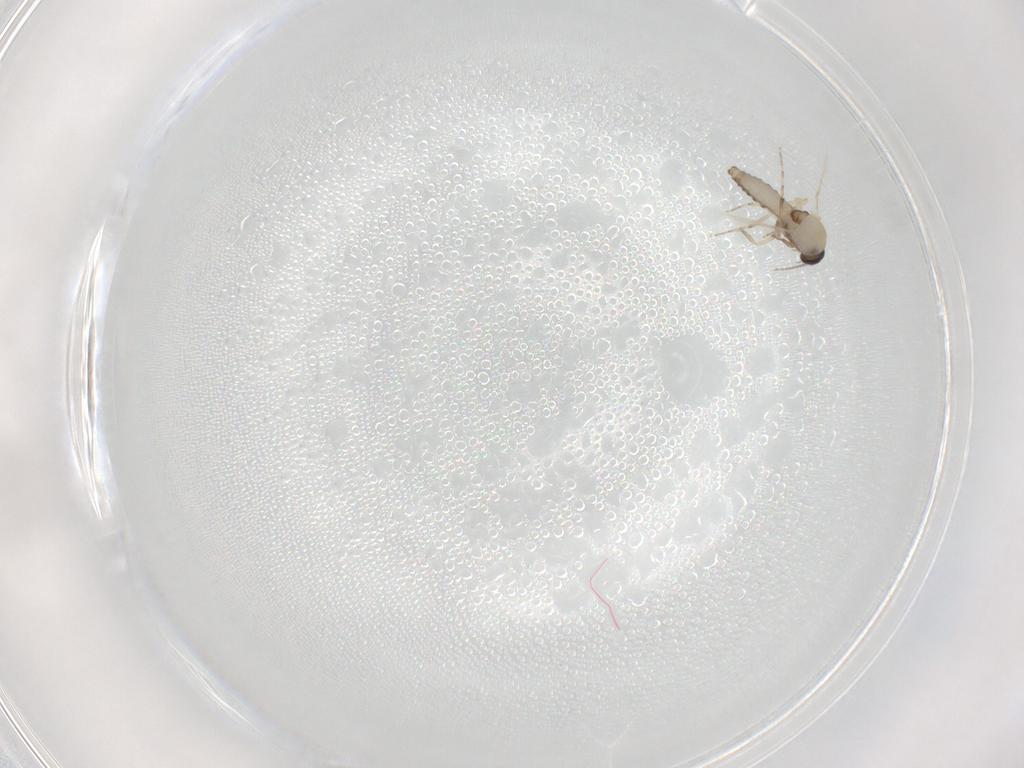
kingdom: Animalia
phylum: Arthropoda
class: Insecta
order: Diptera
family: Ceratopogonidae
